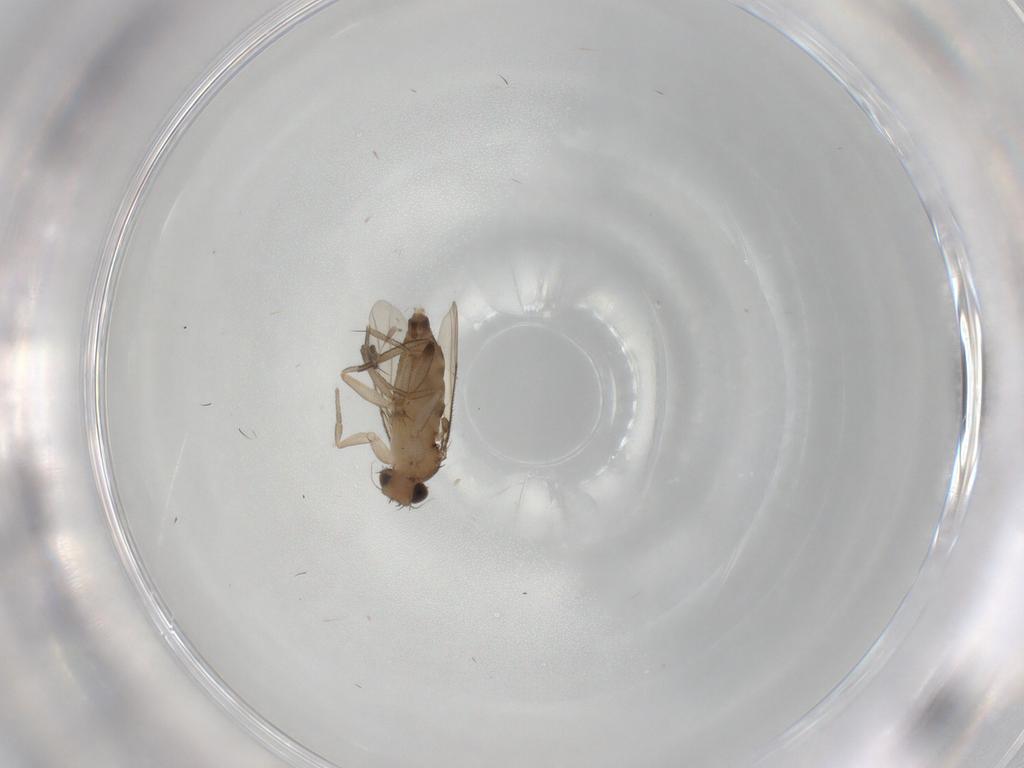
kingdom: Animalia
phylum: Arthropoda
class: Insecta
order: Diptera
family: Phoridae
